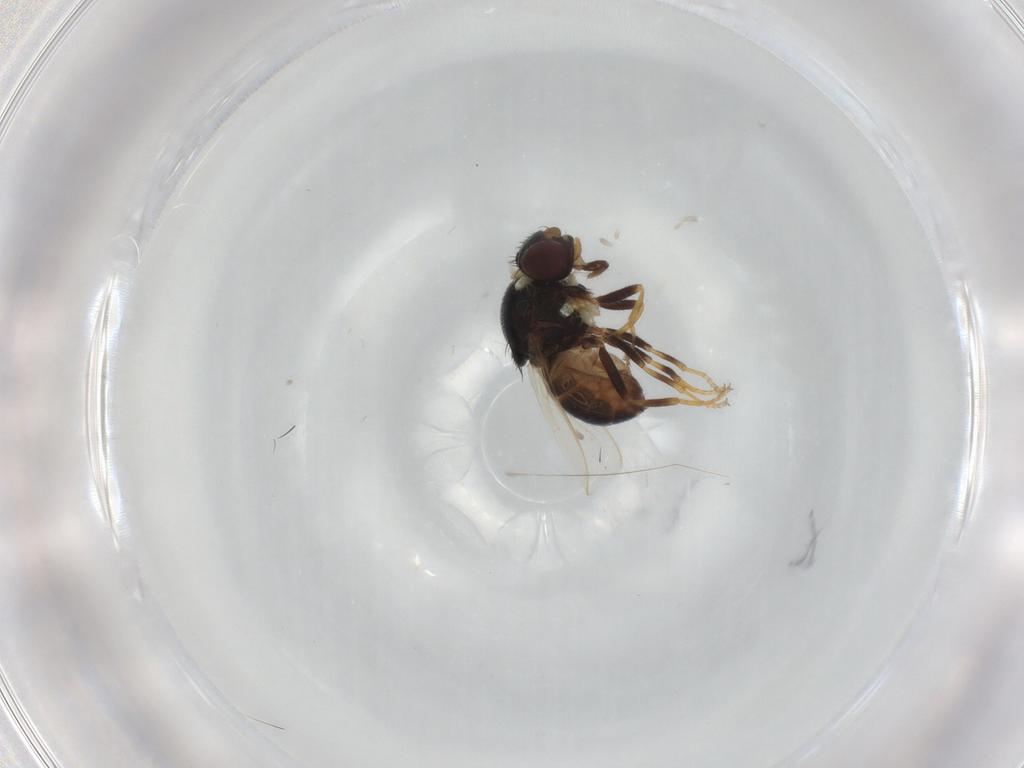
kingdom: Animalia
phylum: Arthropoda
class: Insecta
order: Diptera
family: Chloropidae
